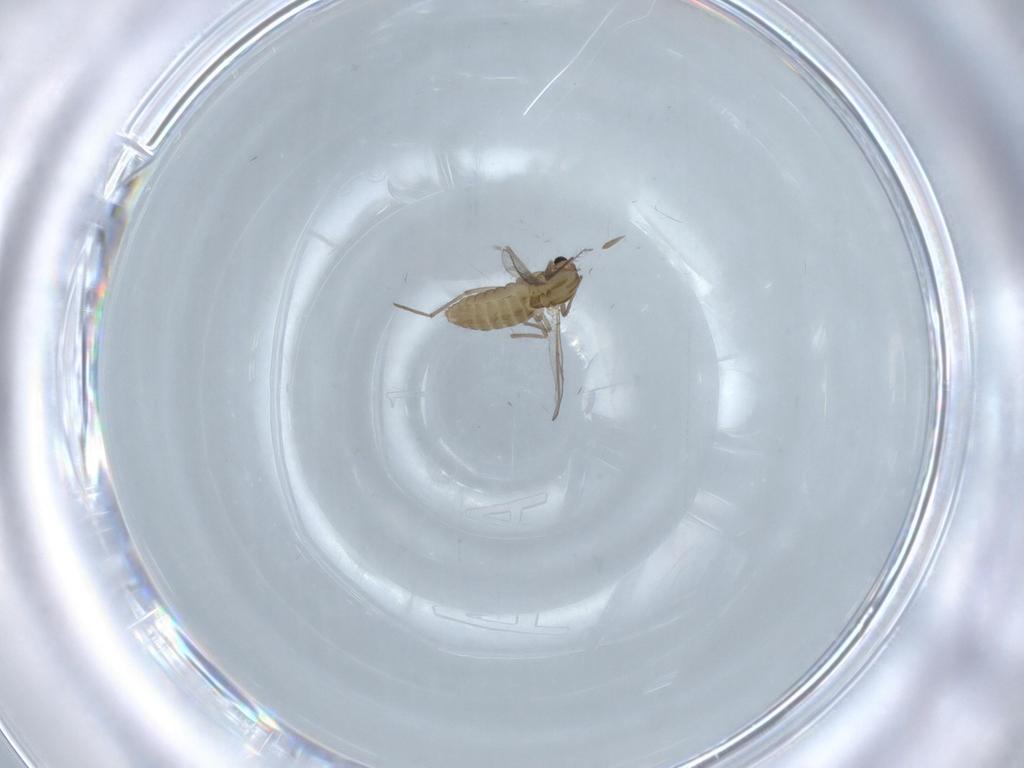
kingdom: Animalia
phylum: Arthropoda
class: Insecta
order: Diptera
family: Chironomidae
